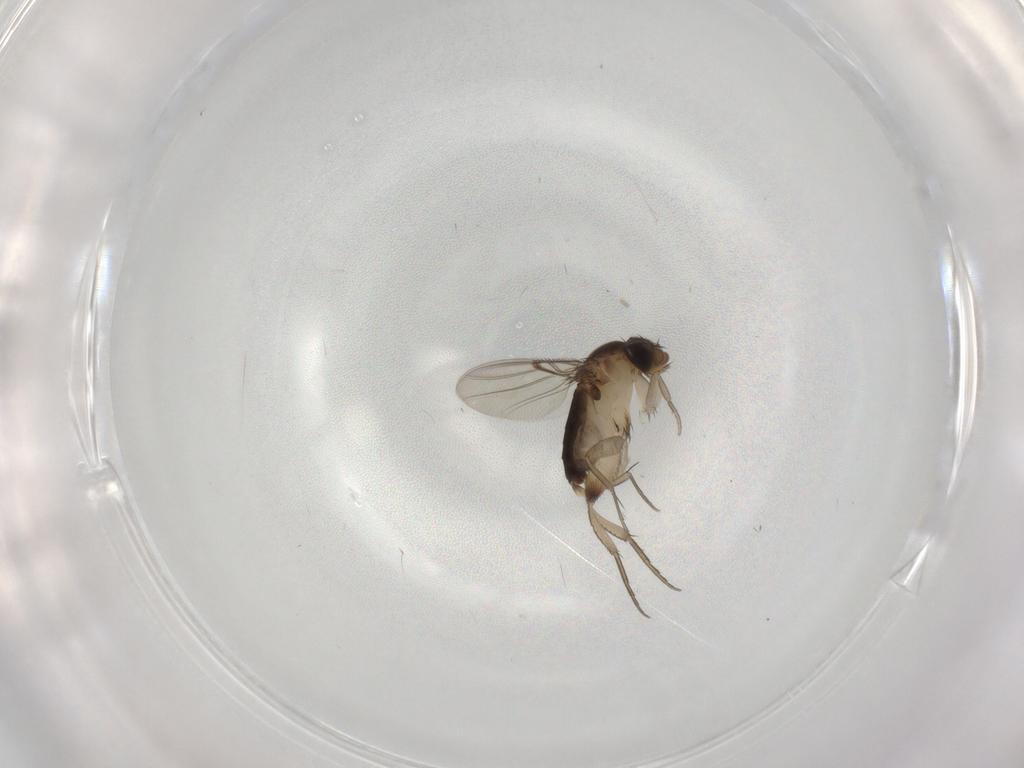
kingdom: Animalia
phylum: Arthropoda
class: Insecta
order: Diptera
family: Phoridae
